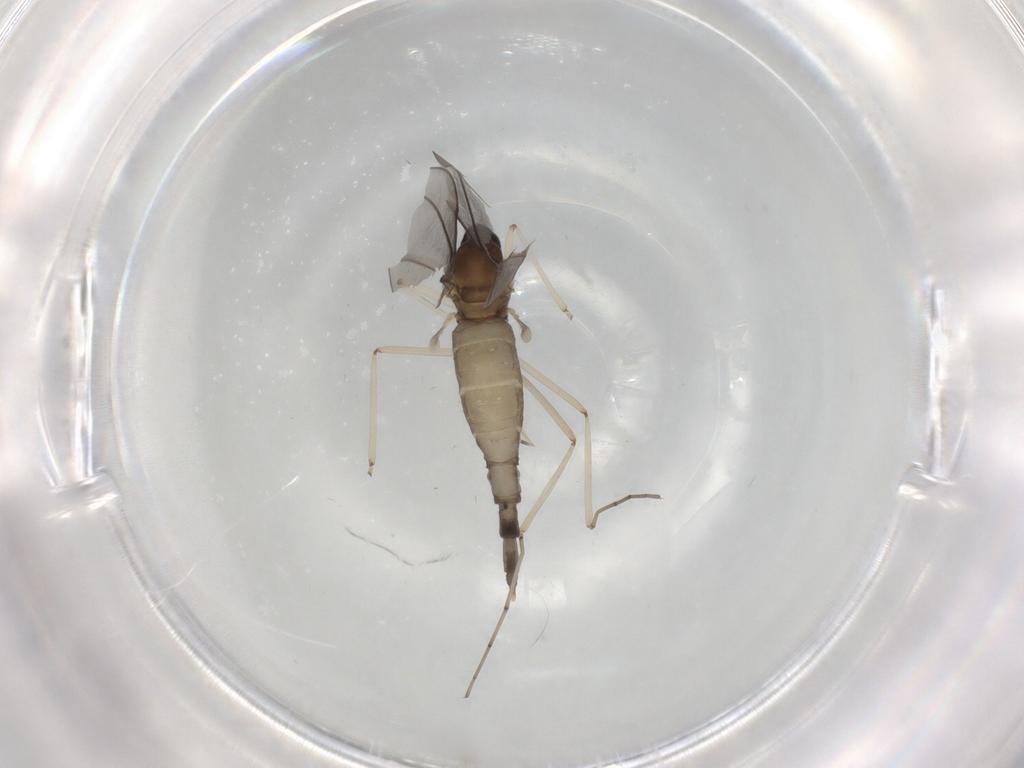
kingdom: Animalia
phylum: Arthropoda
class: Insecta
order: Diptera
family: Cecidomyiidae
